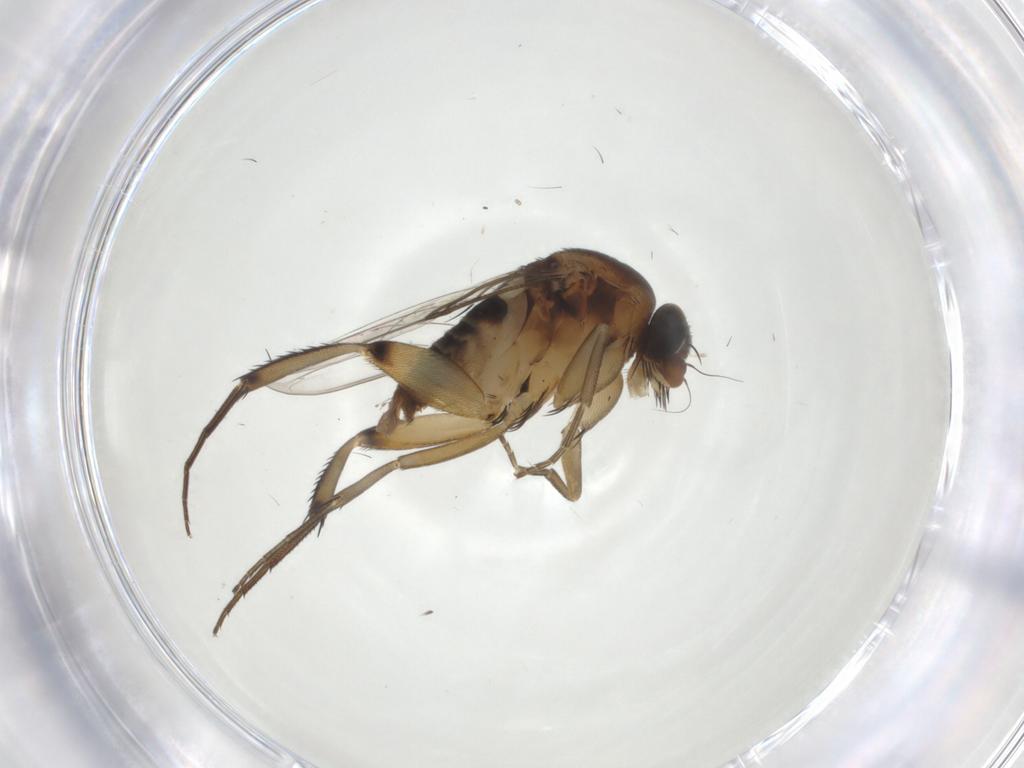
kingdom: Animalia
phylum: Arthropoda
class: Insecta
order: Diptera
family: Phoridae
